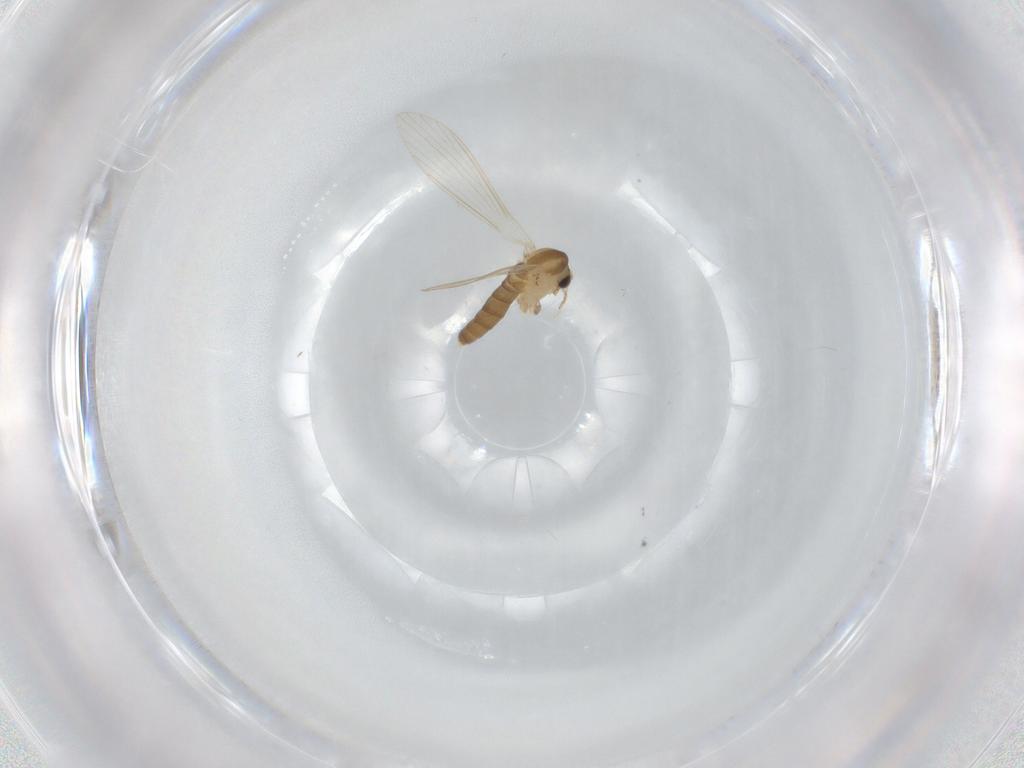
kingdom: Animalia
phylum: Arthropoda
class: Insecta
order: Diptera
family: Psychodidae
